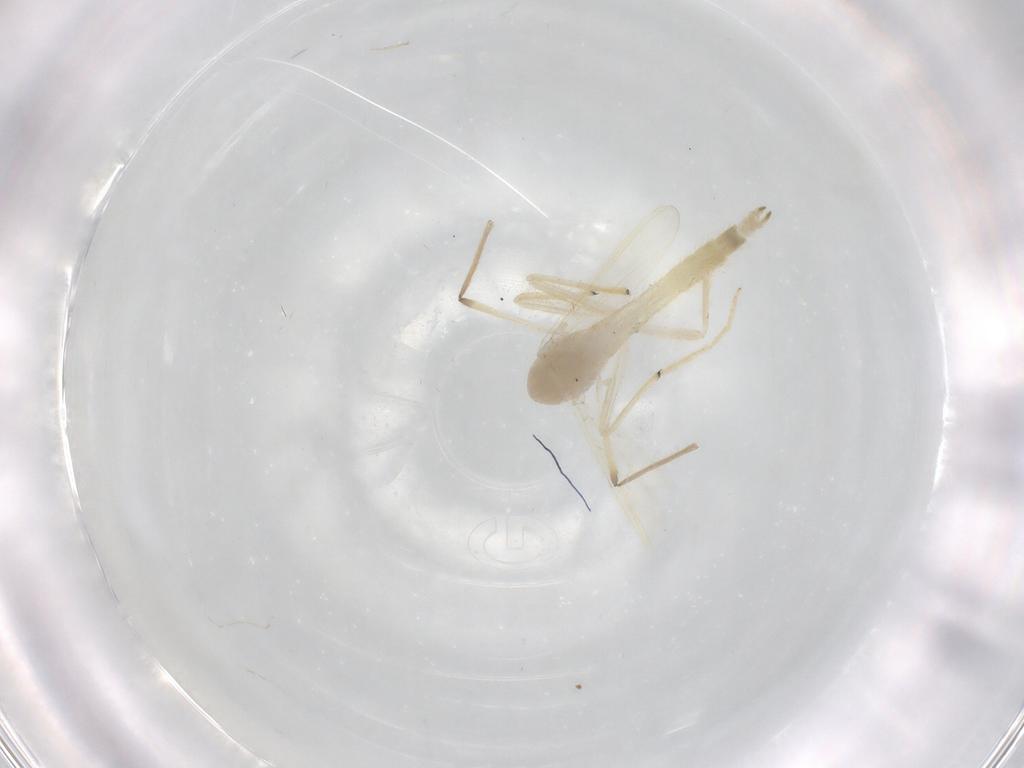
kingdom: Animalia
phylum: Arthropoda
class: Insecta
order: Diptera
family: Chironomidae
